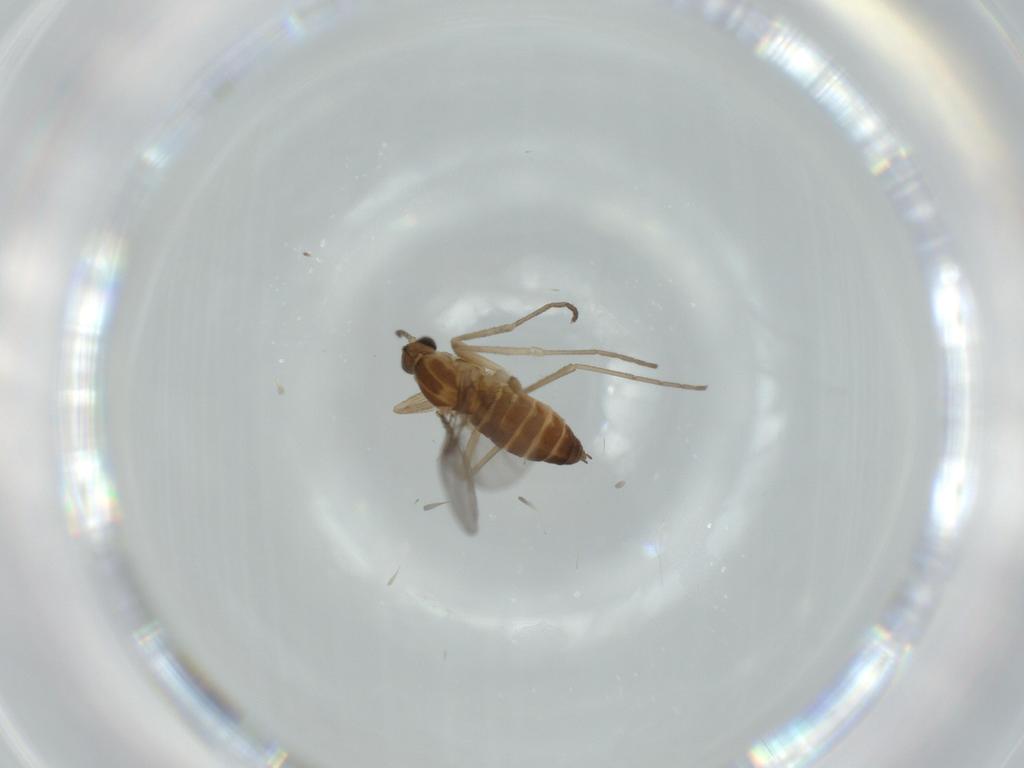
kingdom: Animalia
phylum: Arthropoda
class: Insecta
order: Diptera
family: Cecidomyiidae
